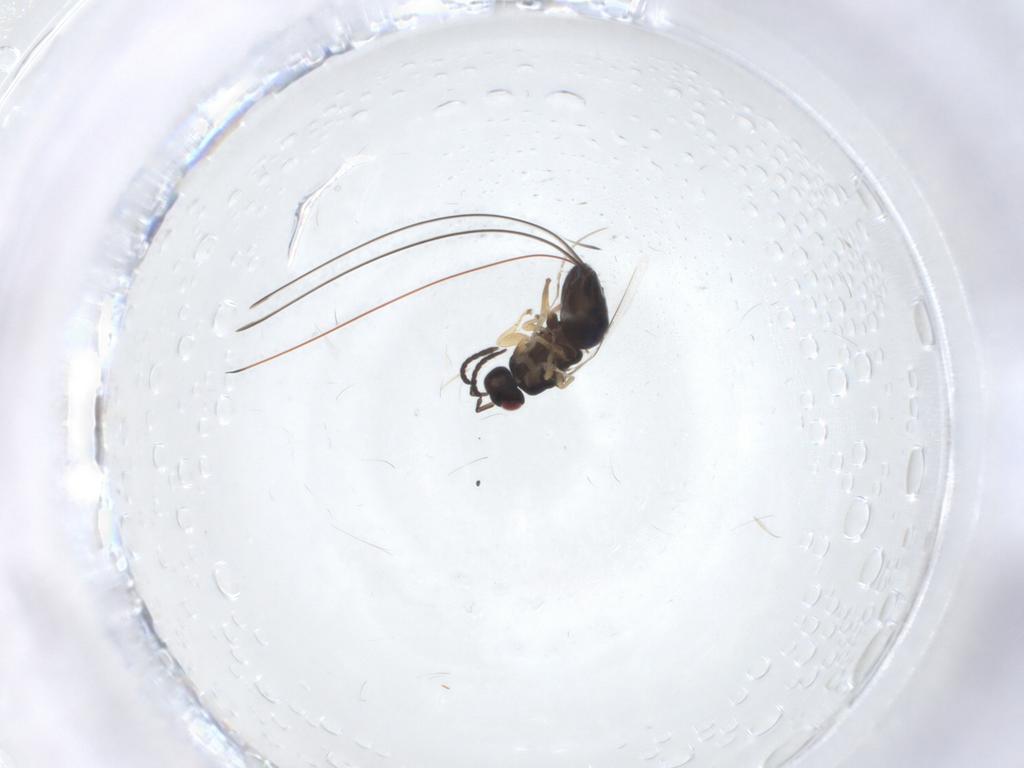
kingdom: Animalia
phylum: Arthropoda
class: Insecta
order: Hymenoptera
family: Pteromalidae
